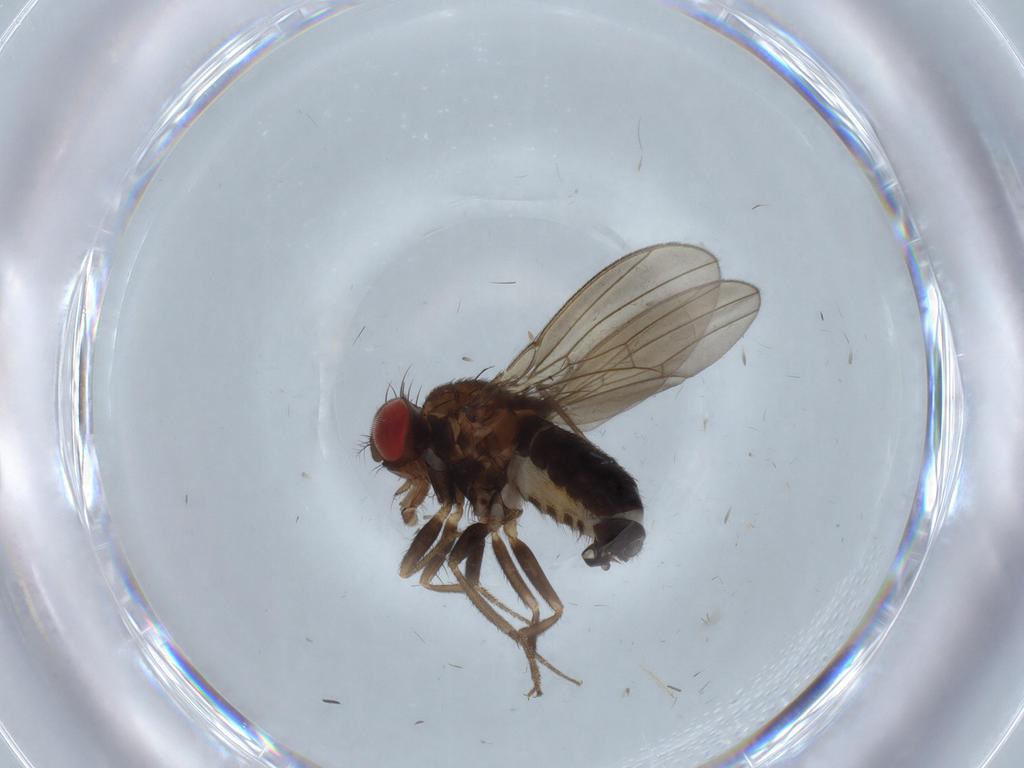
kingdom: Animalia
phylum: Arthropoda
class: Insecta
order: Diptera
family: Drosophilidae
